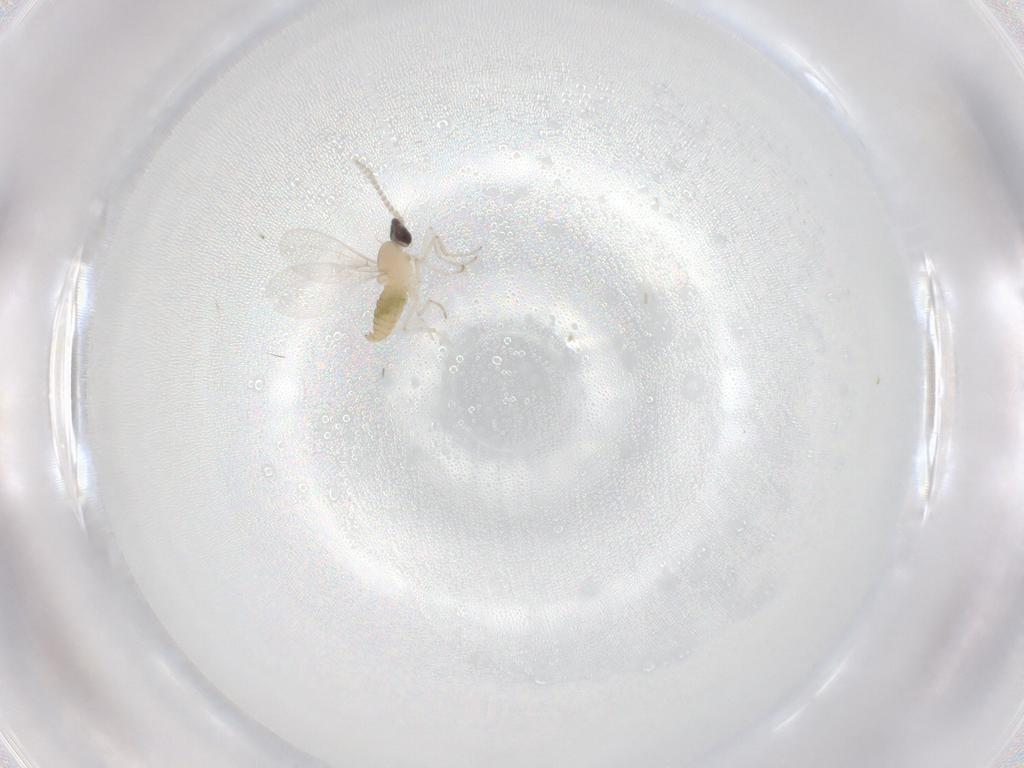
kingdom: Animalia
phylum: Arthropoda
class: Insecta
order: Diptera
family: Cecidomyiidae
